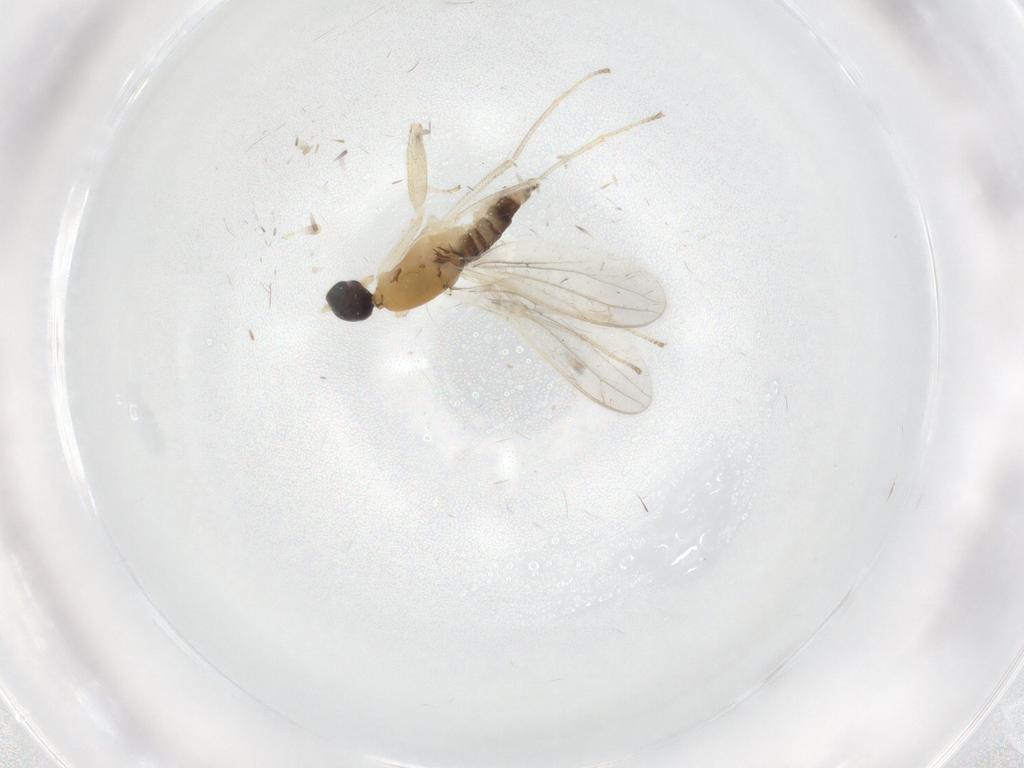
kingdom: Animalia
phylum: Arthropoda
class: Insecta
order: Diptera
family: Empididae
